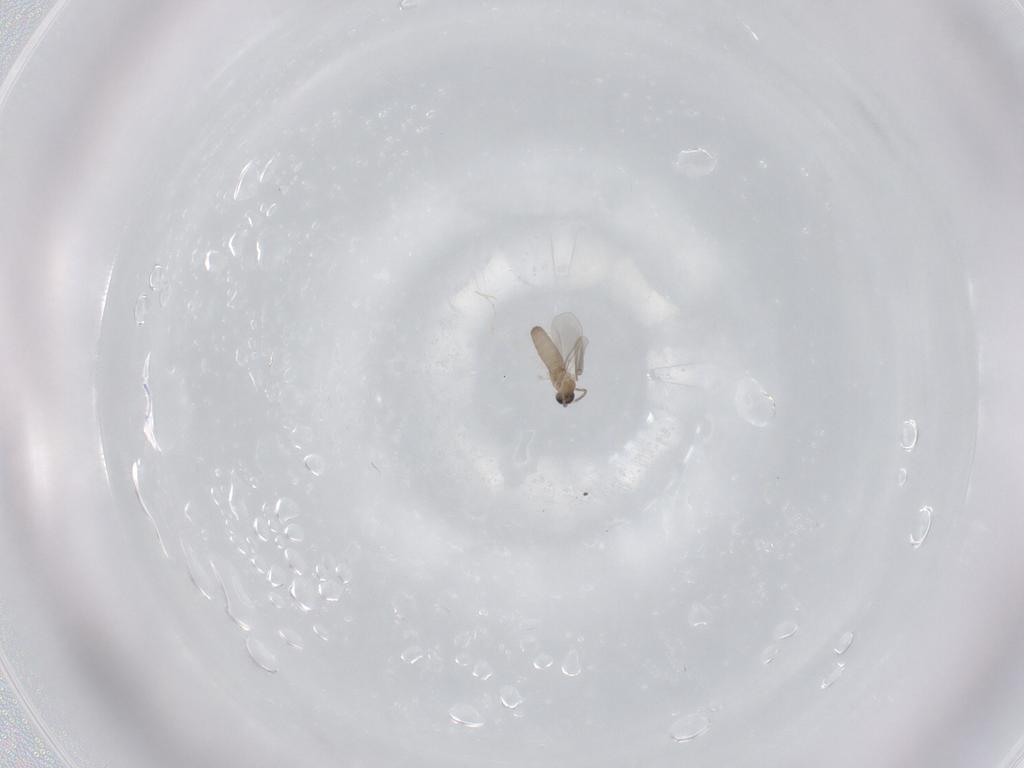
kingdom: Animalia
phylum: Arthropoda
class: Insecta
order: Diptera
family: Cecidomyiidae
